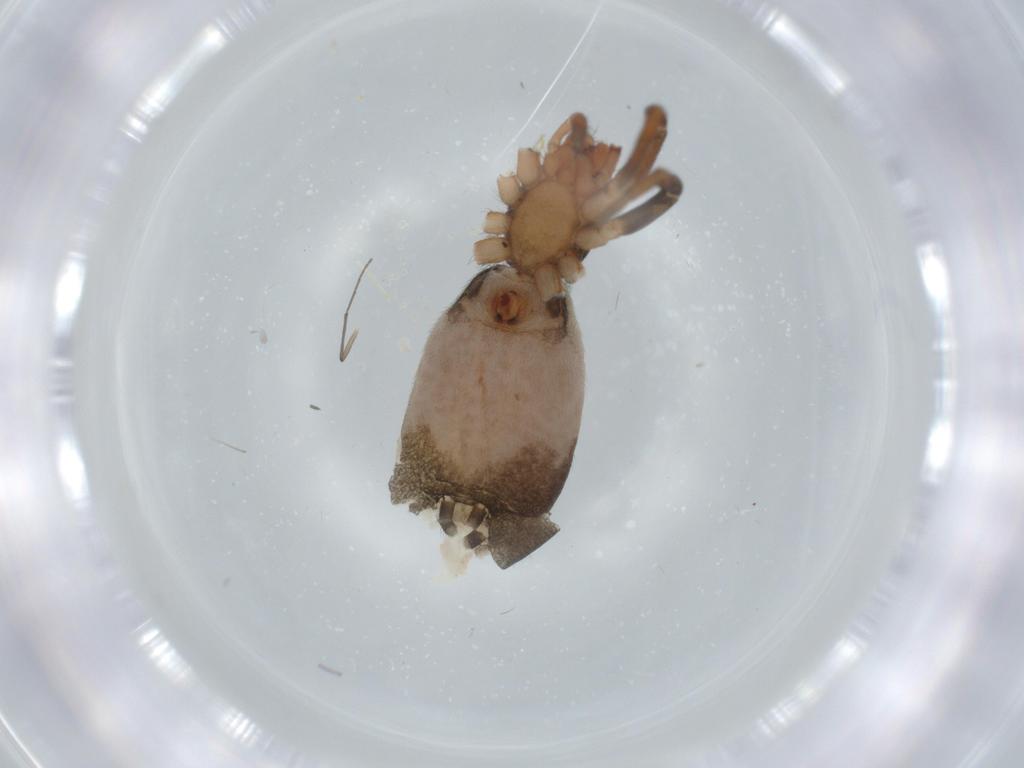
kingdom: Animalia
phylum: Arthropoda
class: Arachnida
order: Araneae
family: Gnaphosidae
